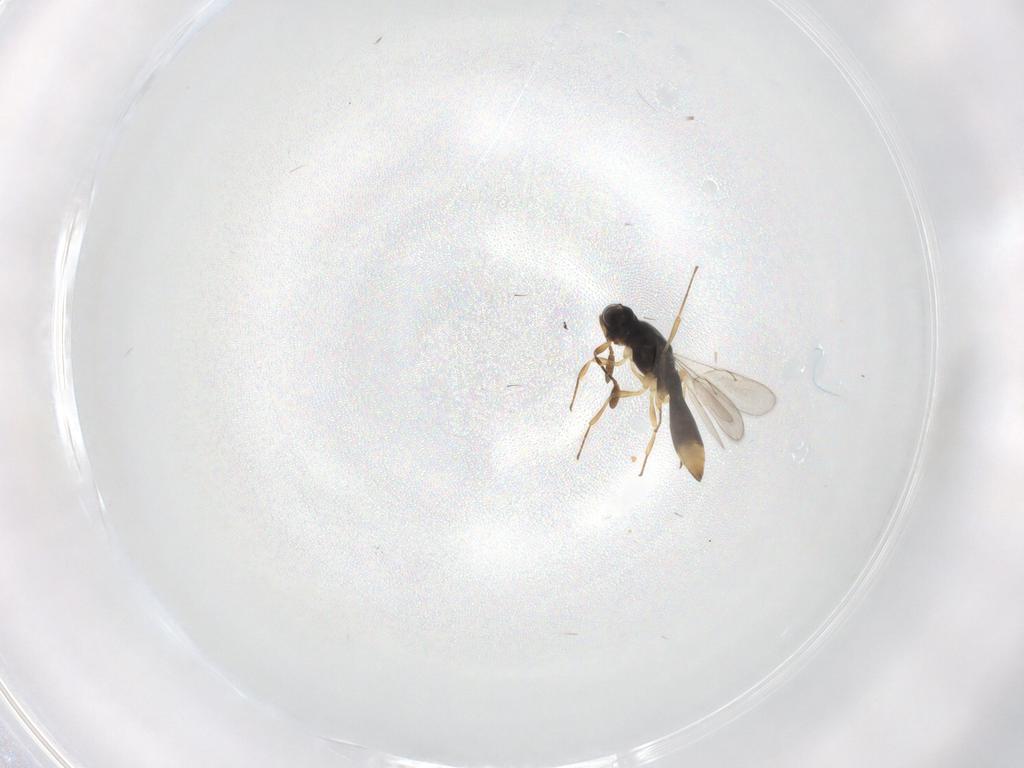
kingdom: Animalia
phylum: Arthropoda
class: Insecta
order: Hymenoptera
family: Scelionidae
